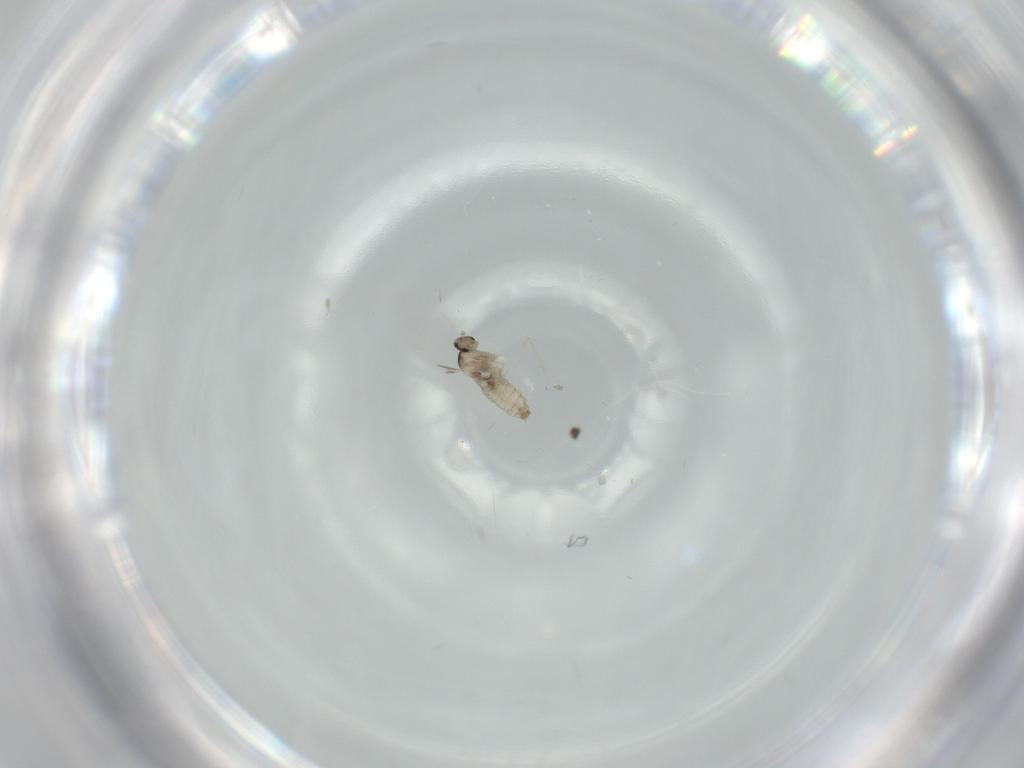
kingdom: Animalia
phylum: Arthropoda
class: Insecta
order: Diptera
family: Cecidomyiidae
